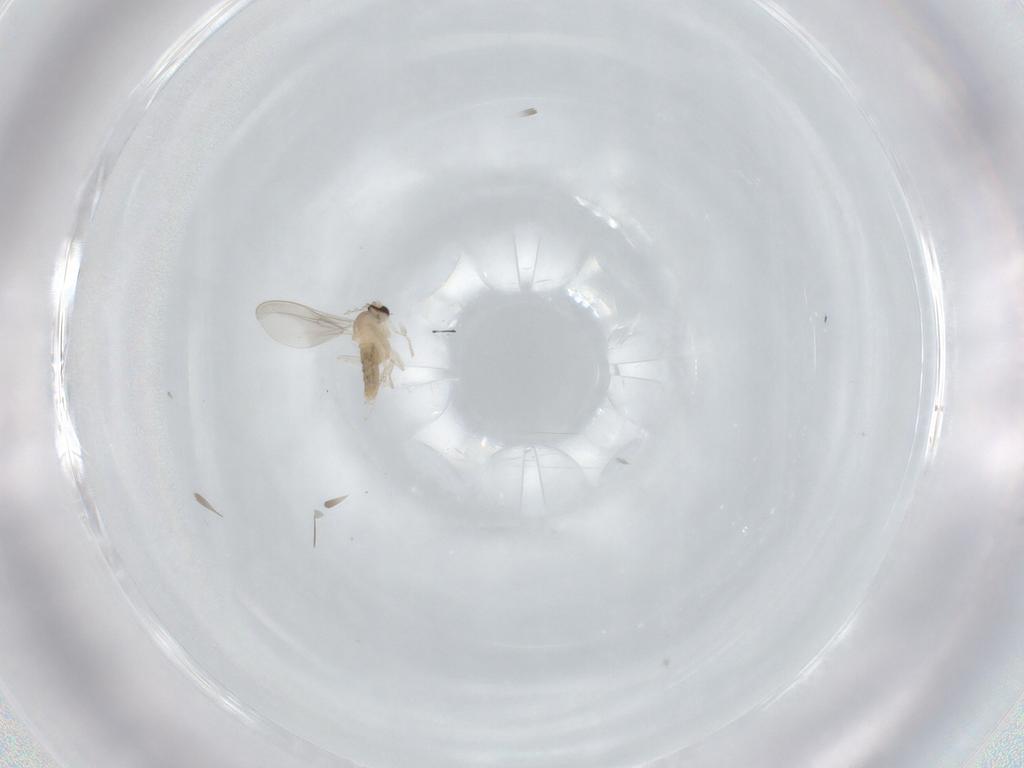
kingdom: Animalia
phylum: Arthropoda
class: Insecta
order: Diptera
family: Cecidomyiidae
